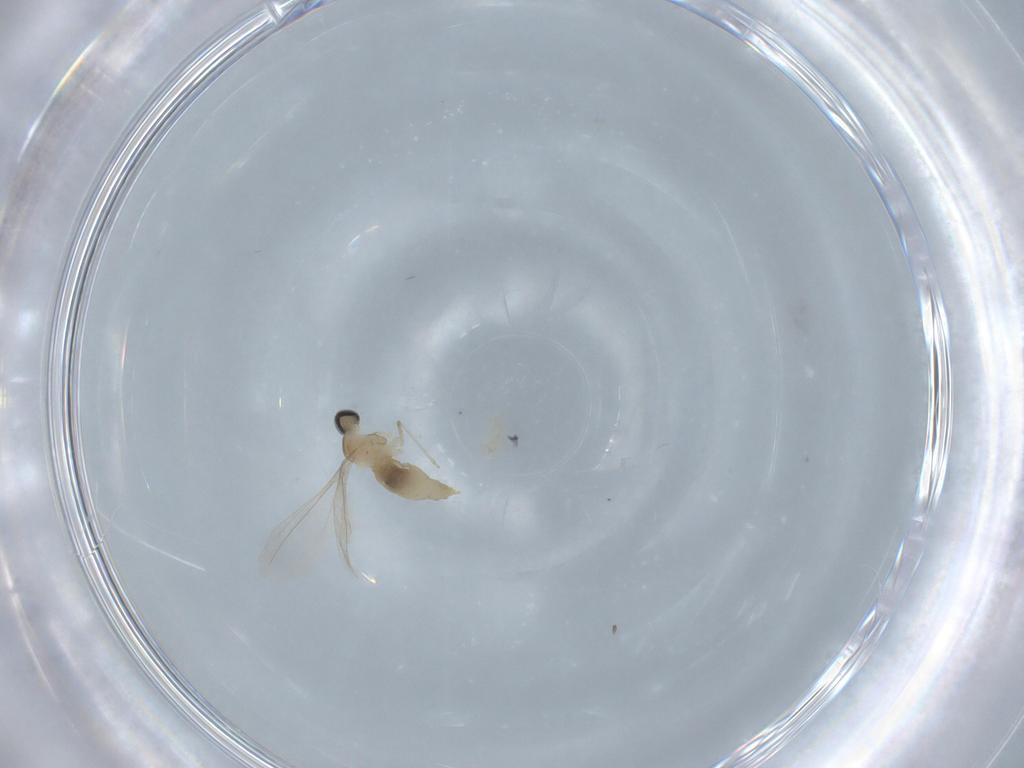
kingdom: Animalia
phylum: Arthropoda
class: Insecta
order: Diptera
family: Cecidomyiidae
